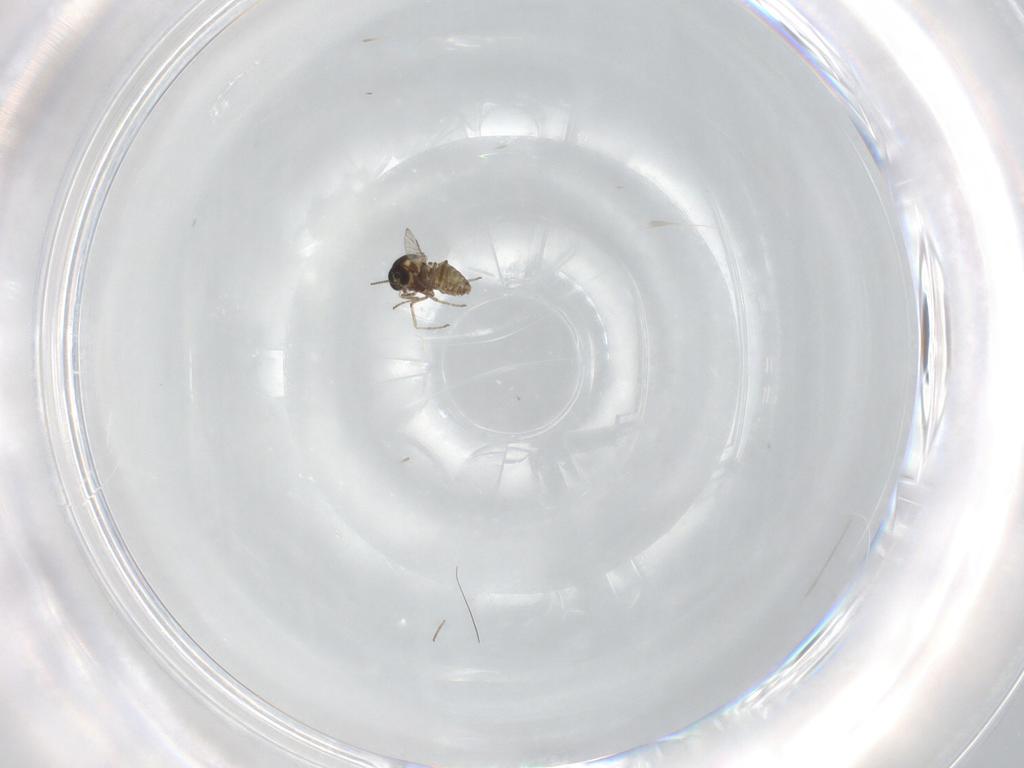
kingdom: Animalia
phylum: Arthropoda
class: Insecta
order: Diptera
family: Ceratopogonidae
